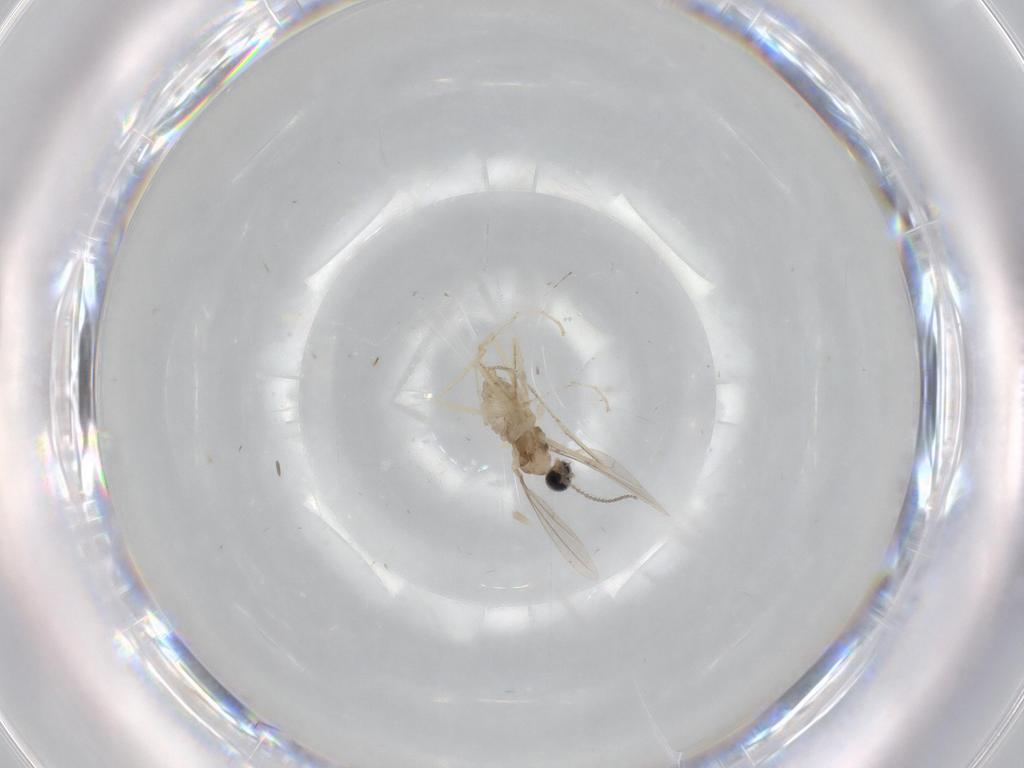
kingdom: Animalia
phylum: Arthropoda
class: Insecta
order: Diptera
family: Cecidomyiidae
